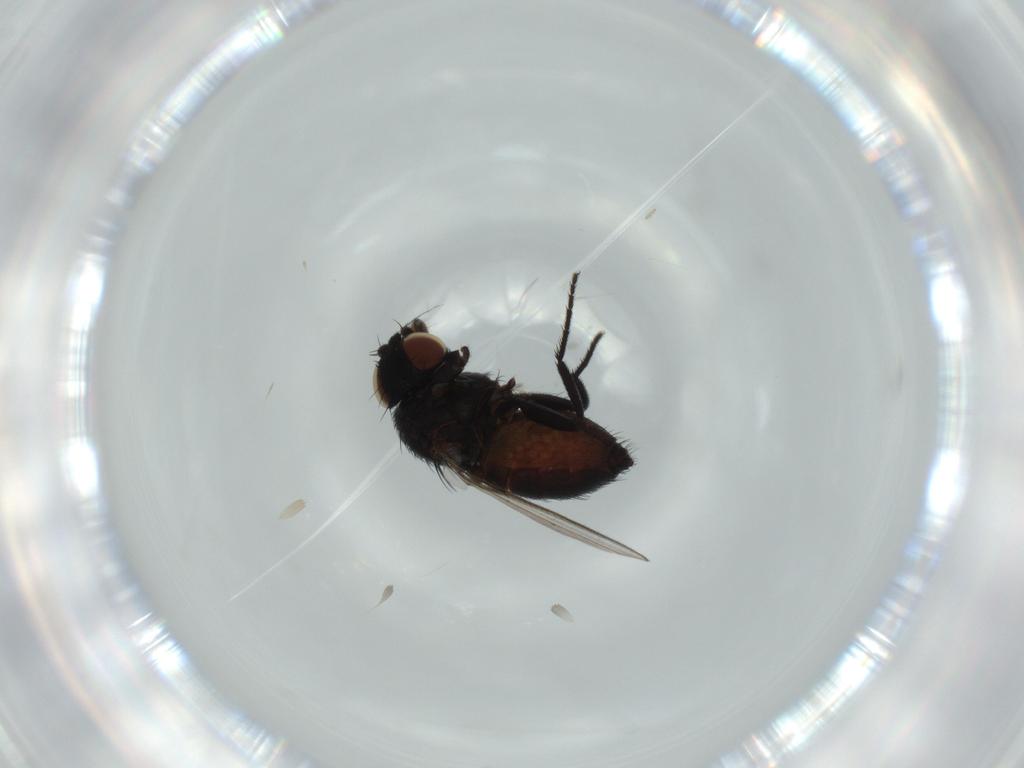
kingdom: Animalia
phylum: Arthropoda
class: Insecta
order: Diptera
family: Milichiidae
